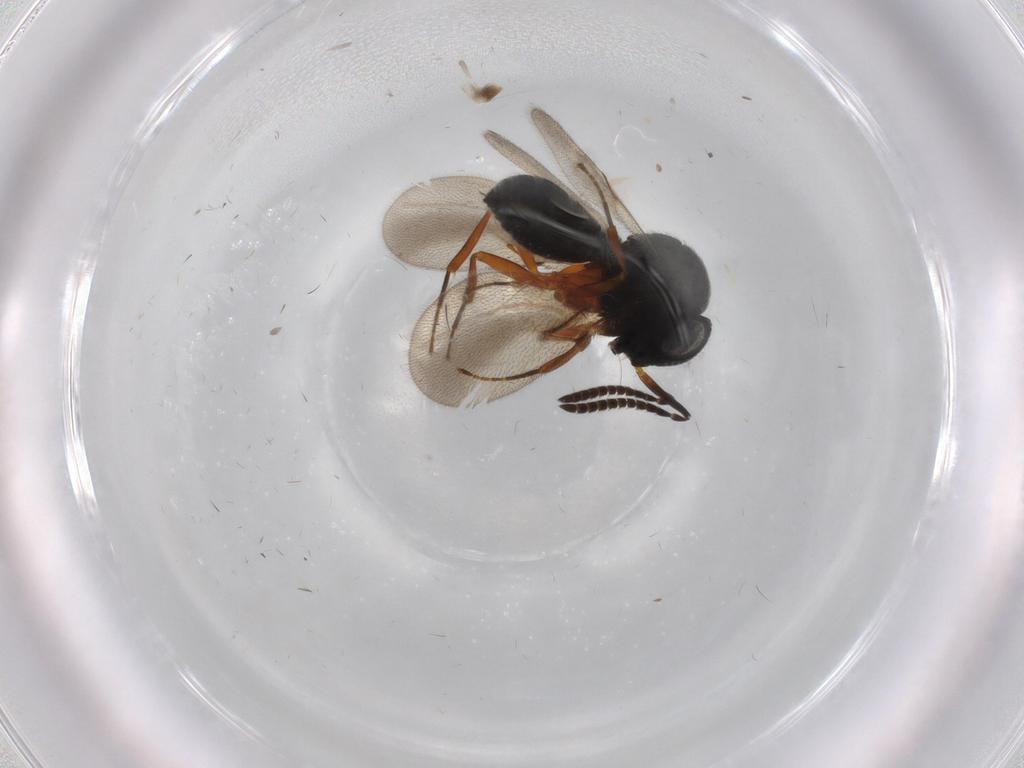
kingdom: Animalia
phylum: Arthropoda
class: Insecta
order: Hymenoptera
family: Scelionidae
